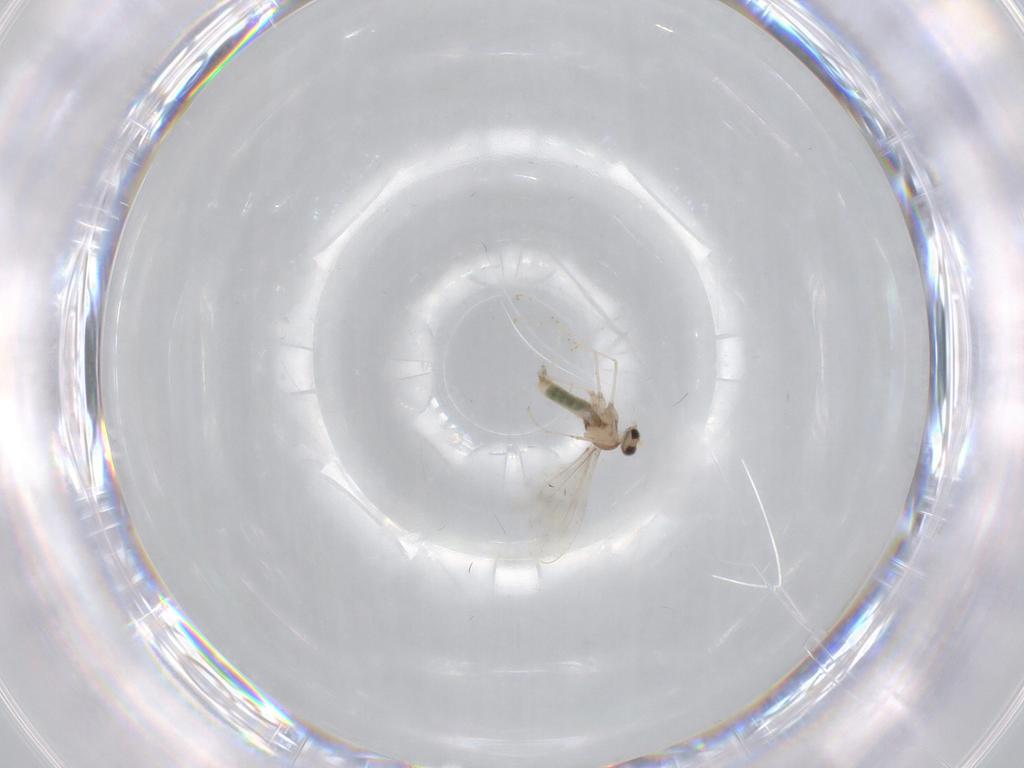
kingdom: Animalia
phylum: Arthropoda
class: Insecta
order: Diptera
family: Cecidomyiidae
